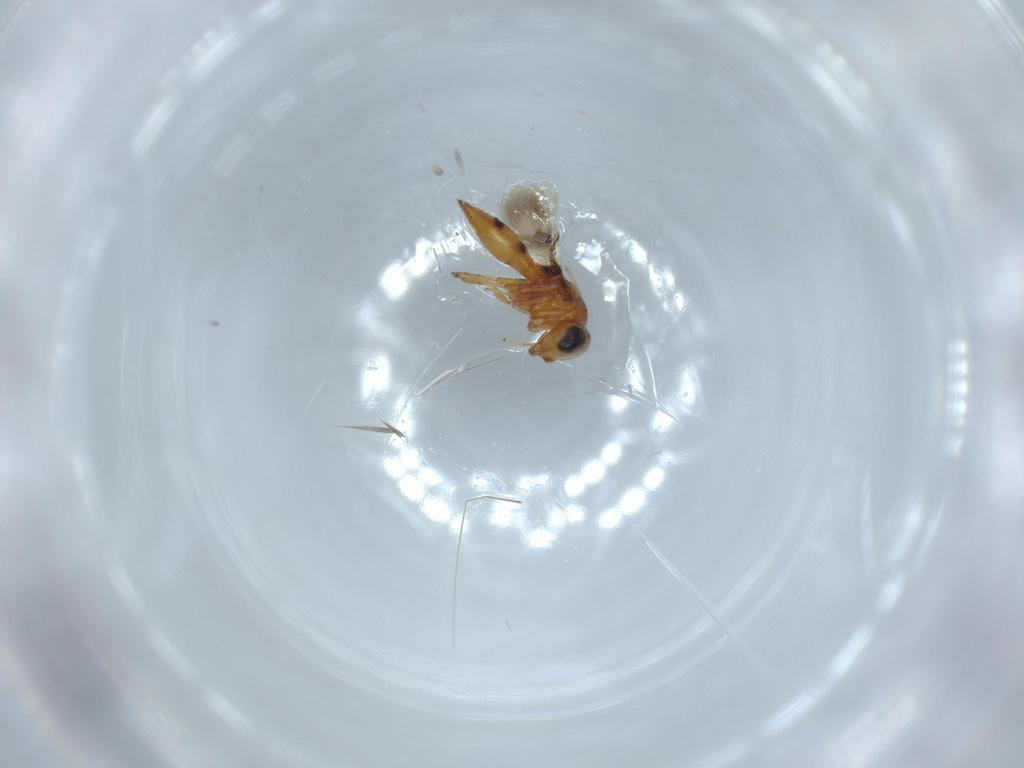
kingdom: Animalia
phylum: Arthropoda
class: Insecta
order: Hymenoptera
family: Scelionidae
